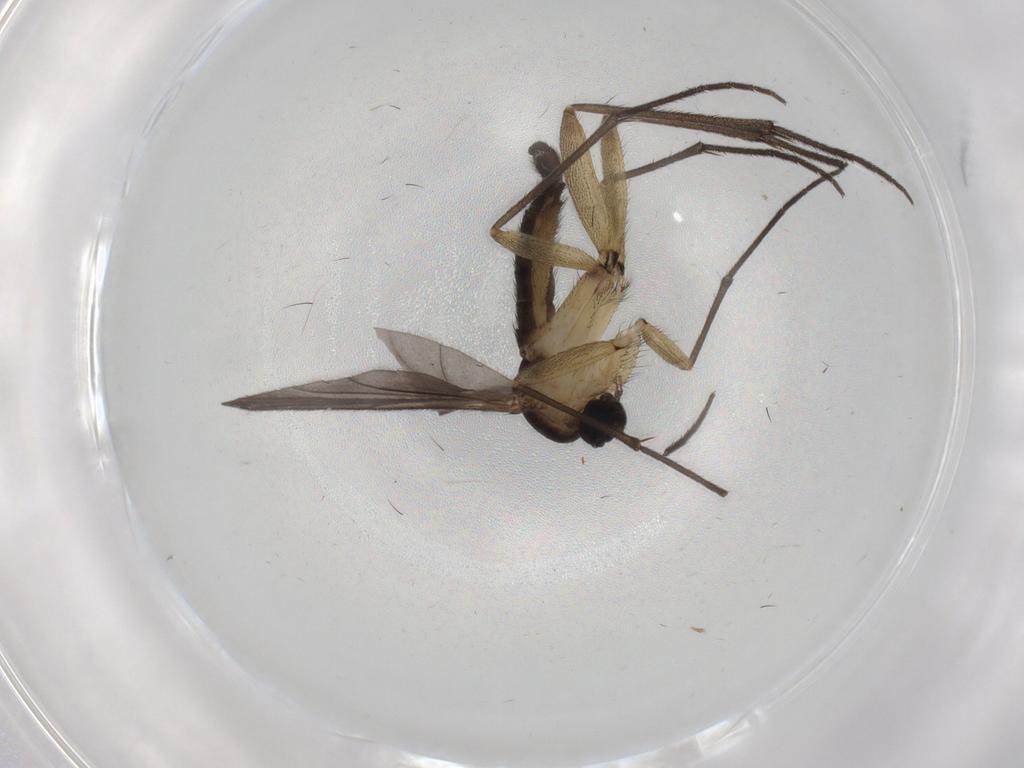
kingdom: Animalia
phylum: Arthropoda
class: Insecta
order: Diptera
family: Sciaridae
